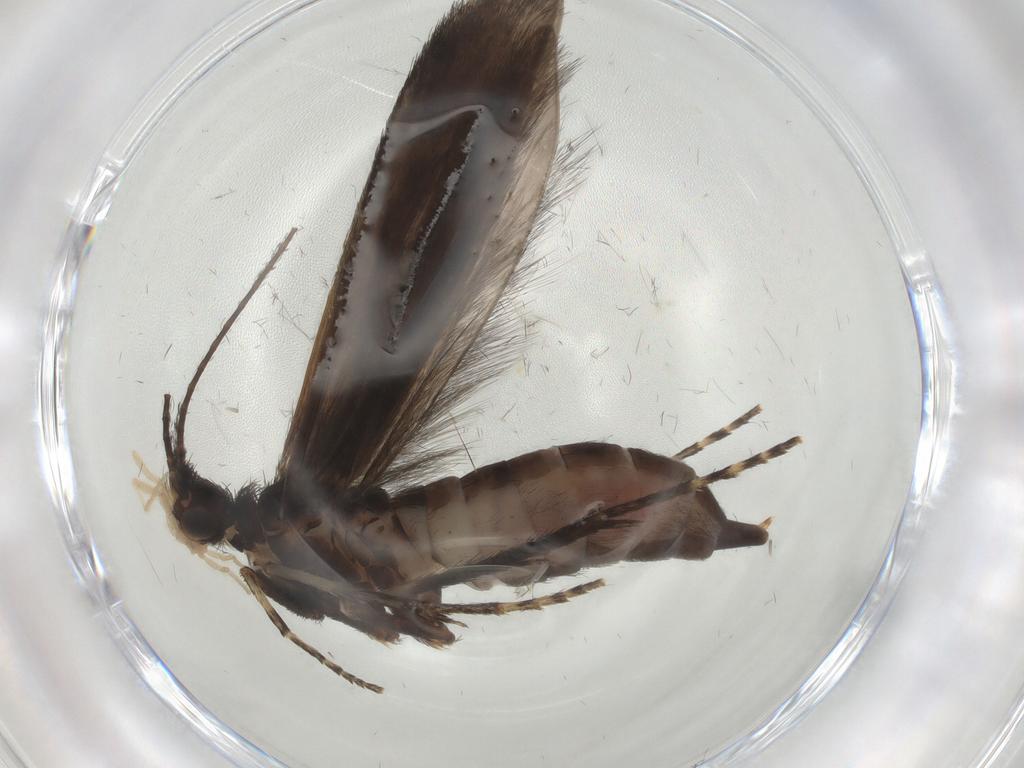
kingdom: Animalia
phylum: Arthropoda
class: Insecta
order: Trichoptera
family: Xiphocentronidae
